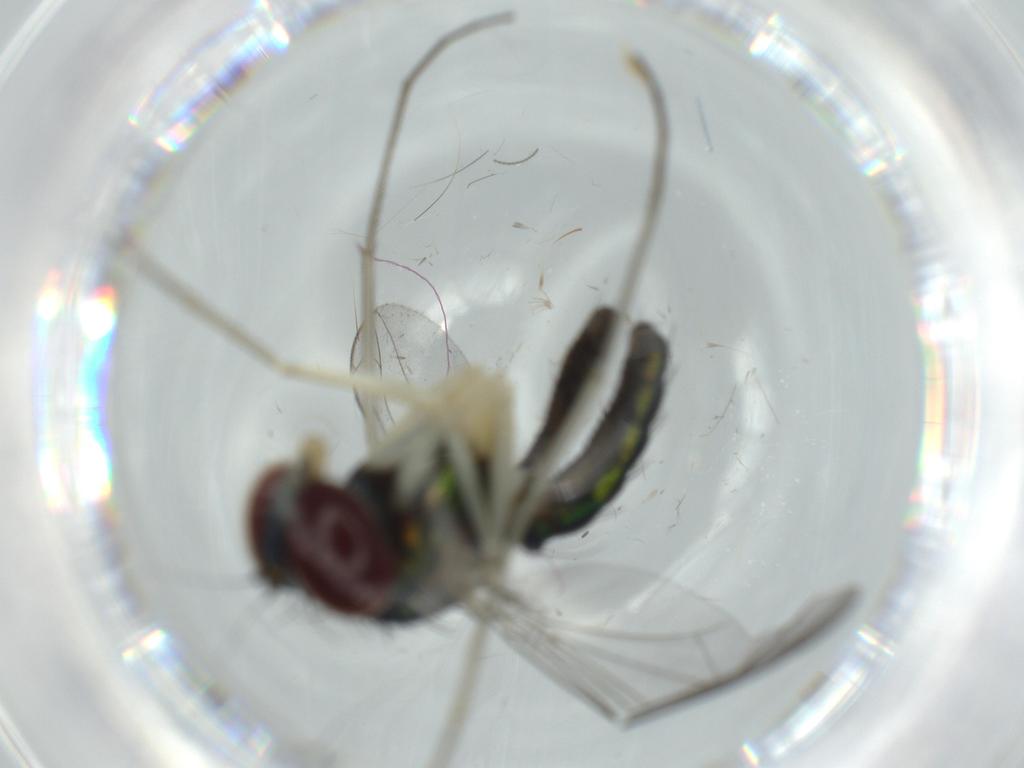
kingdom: Animalia
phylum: Arthropoda
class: Insecta
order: Diptera
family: Dolichopodidae
